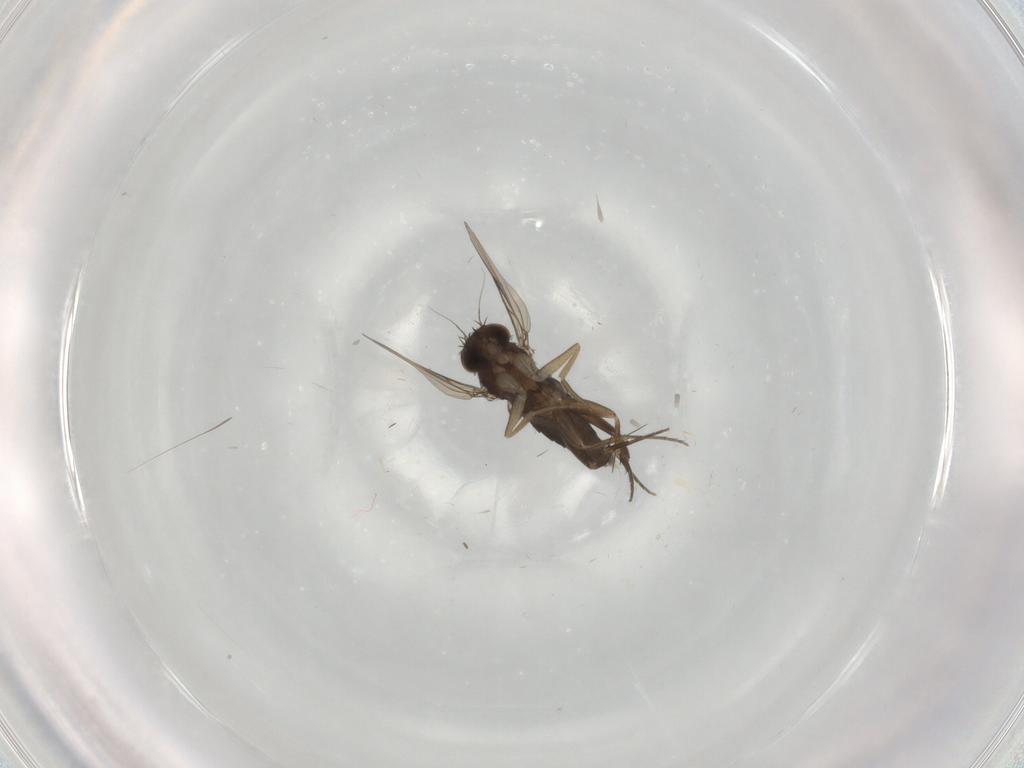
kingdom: Animalia
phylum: Arthropoda
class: Insecta
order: Diptera
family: Phoridae
